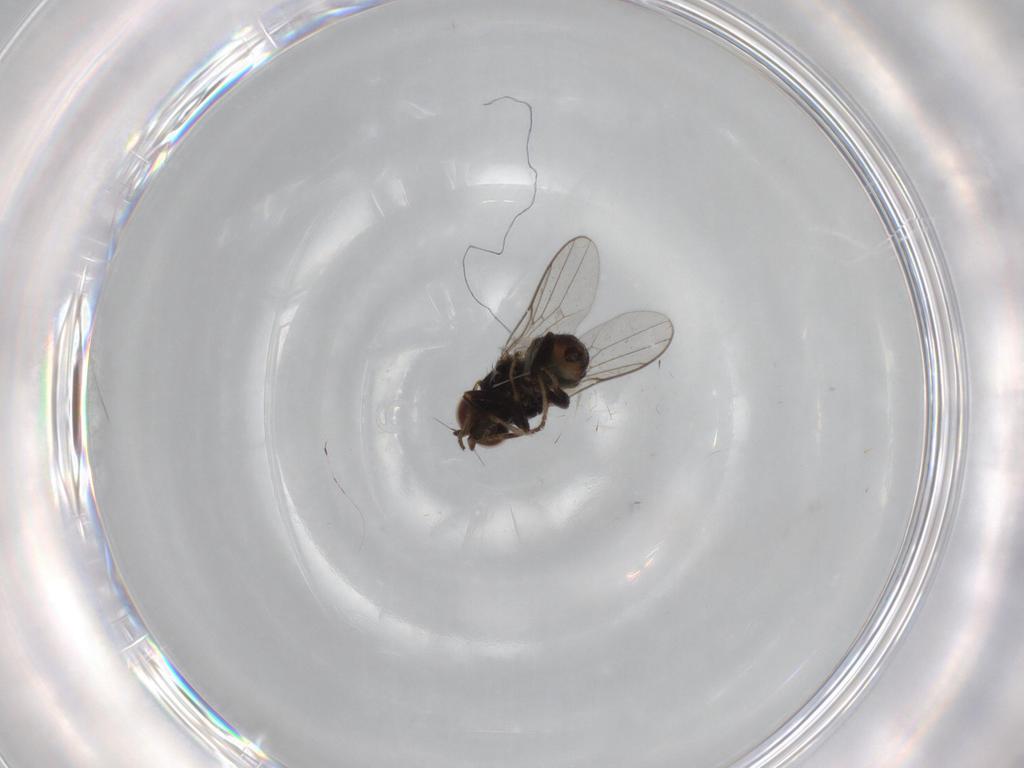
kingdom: Animalia
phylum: Arthropoda
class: Insecta
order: Diptera
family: Chloropidae
